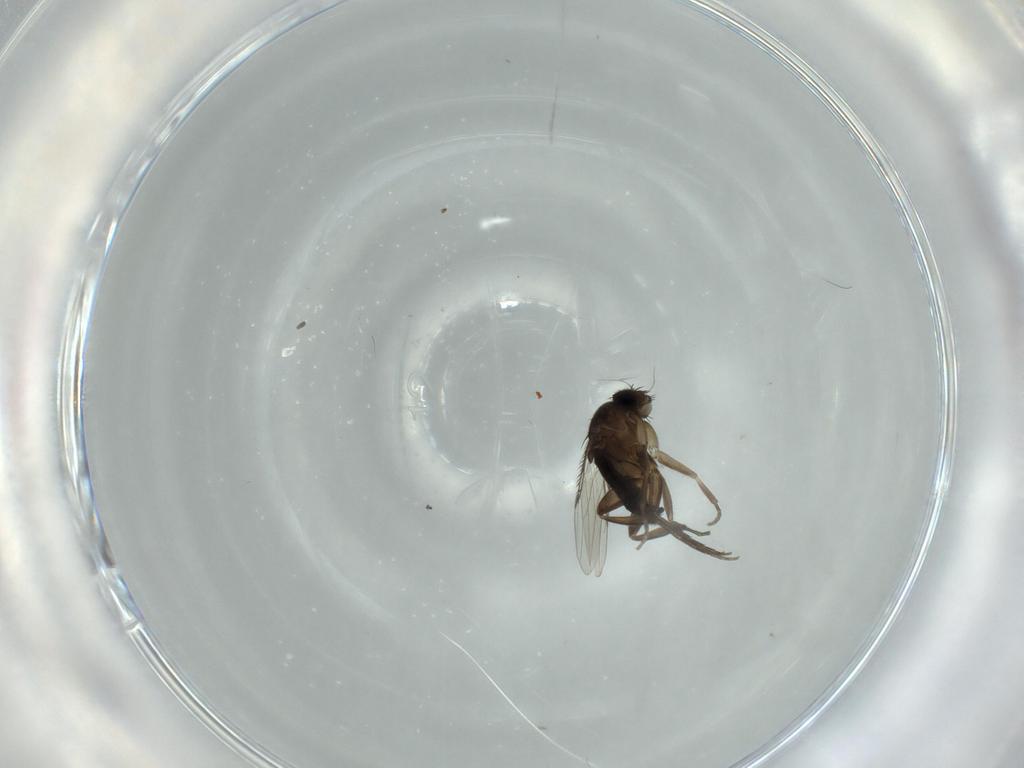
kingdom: Animalia
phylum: Arthropoda
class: Insecta
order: Diptera
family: Phoridae
